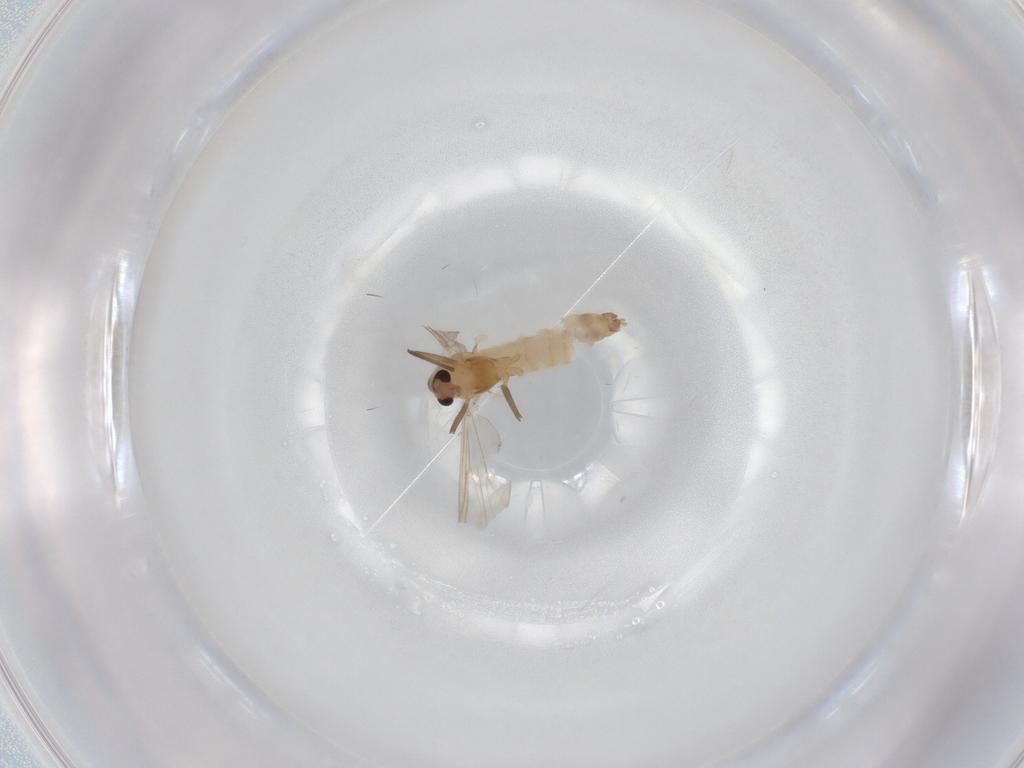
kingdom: Animalia
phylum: Arthropoda
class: Insecta
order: Diptera
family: Chironomidae
